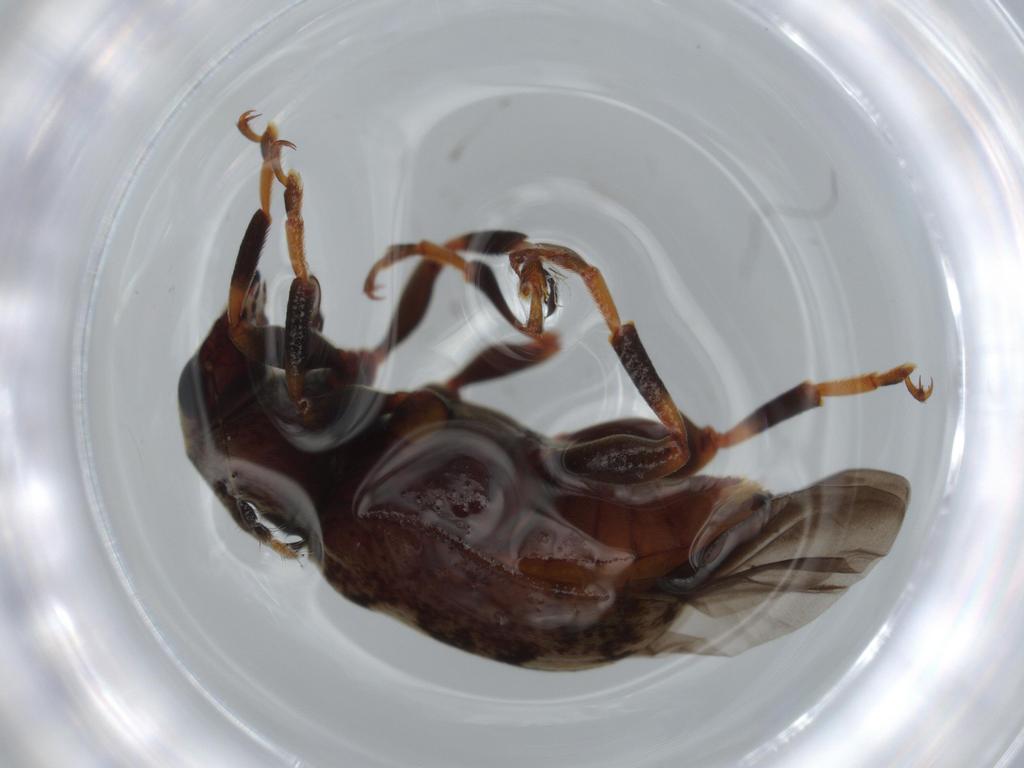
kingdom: Animalia
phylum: Arthropoda
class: Insecta
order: Coleoptera
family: Anthribidae
